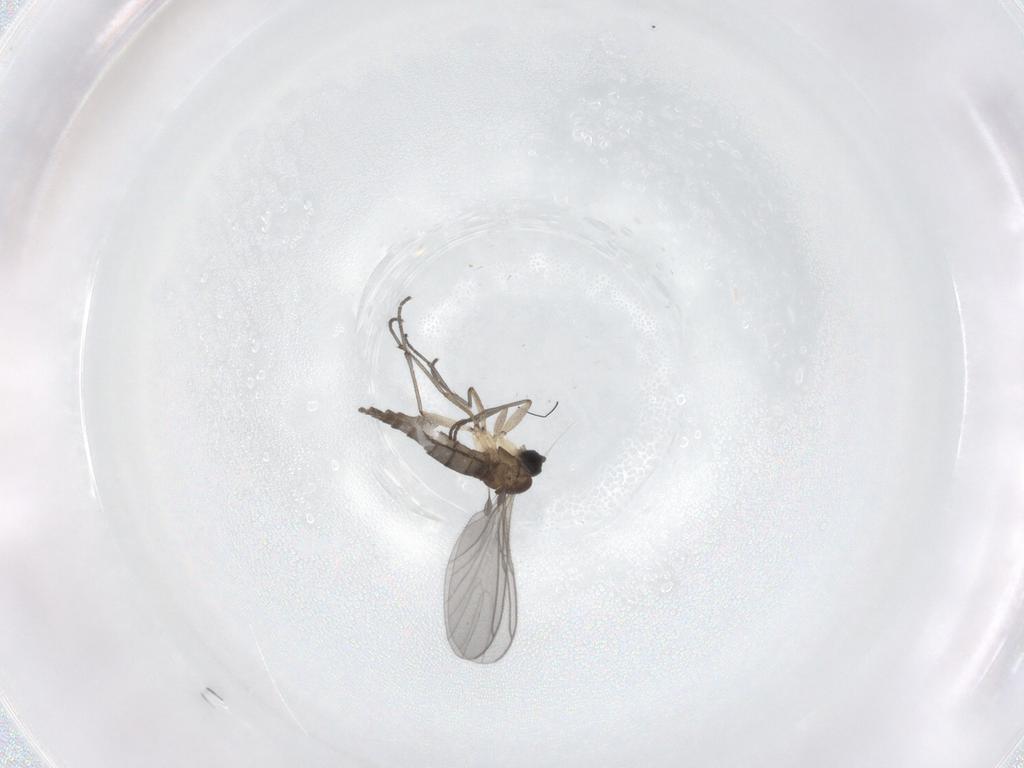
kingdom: Animalia
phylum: Arthropoda
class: Insecta
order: Diptera
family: Sciaridae
